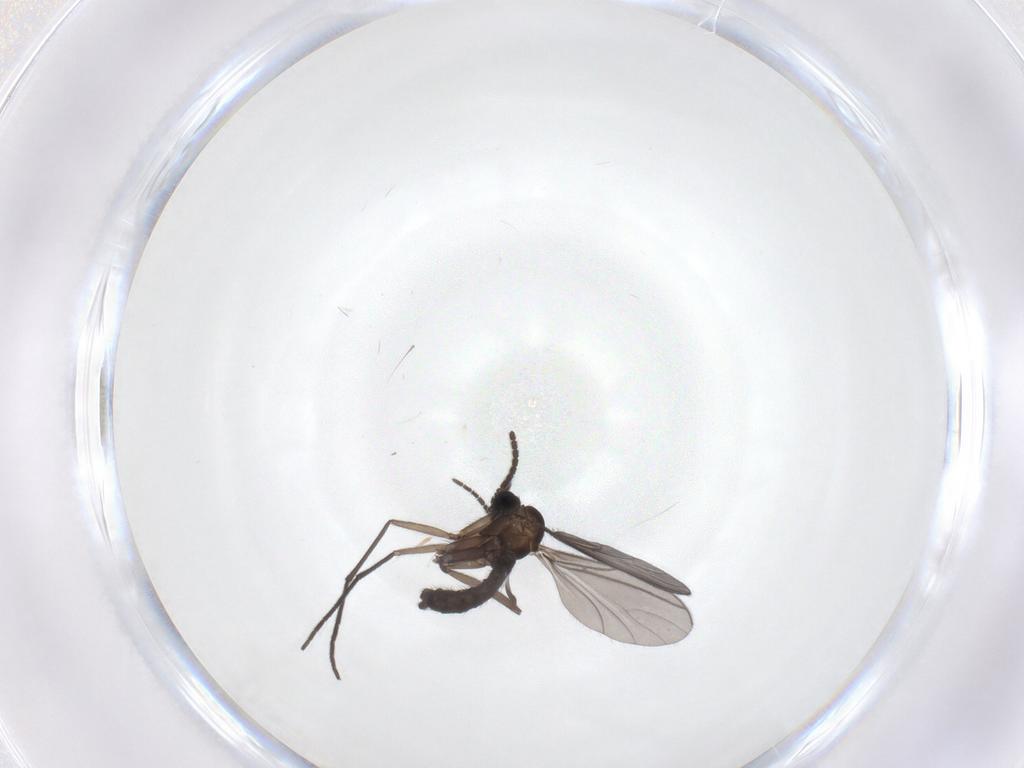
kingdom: Animalia
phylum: Arthropoda
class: Insecta
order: Diptera
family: Sciaridae
